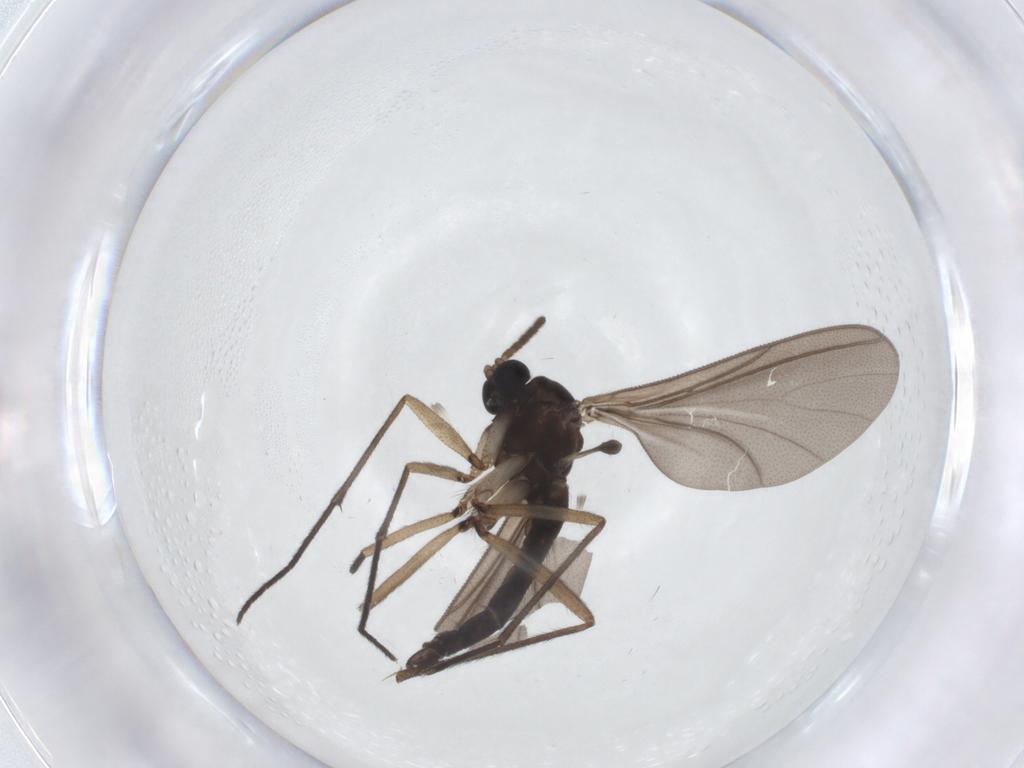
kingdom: Animalia
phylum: Arthropoda
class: Insecta
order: Diptera
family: Sciaridae
